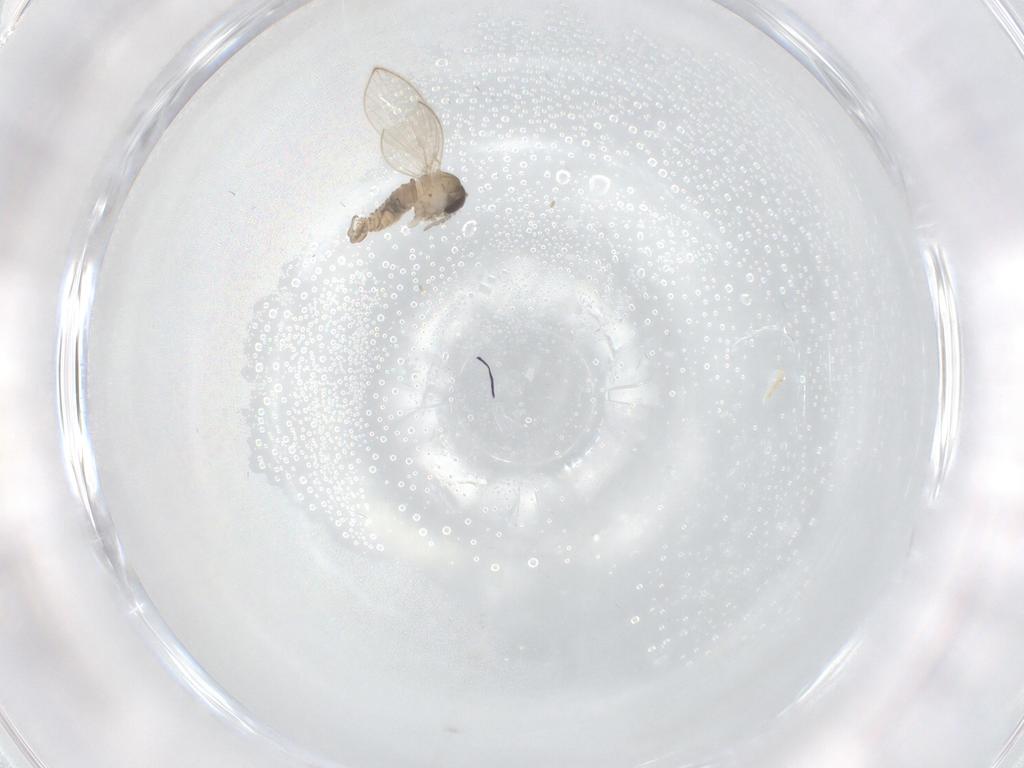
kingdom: Animalia
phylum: Arthropoda
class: Insecta
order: Diptera
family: Psychodidae
